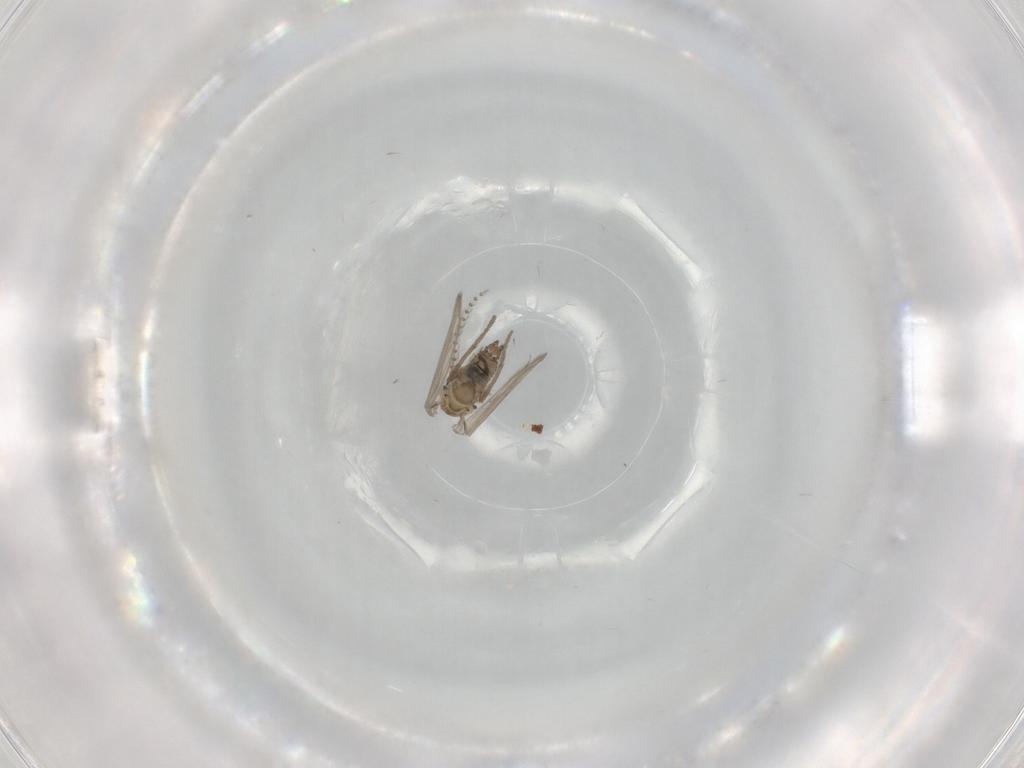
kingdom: Animalia
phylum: Arthropoda
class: Insecta
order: Diptera
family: Psychodidae
